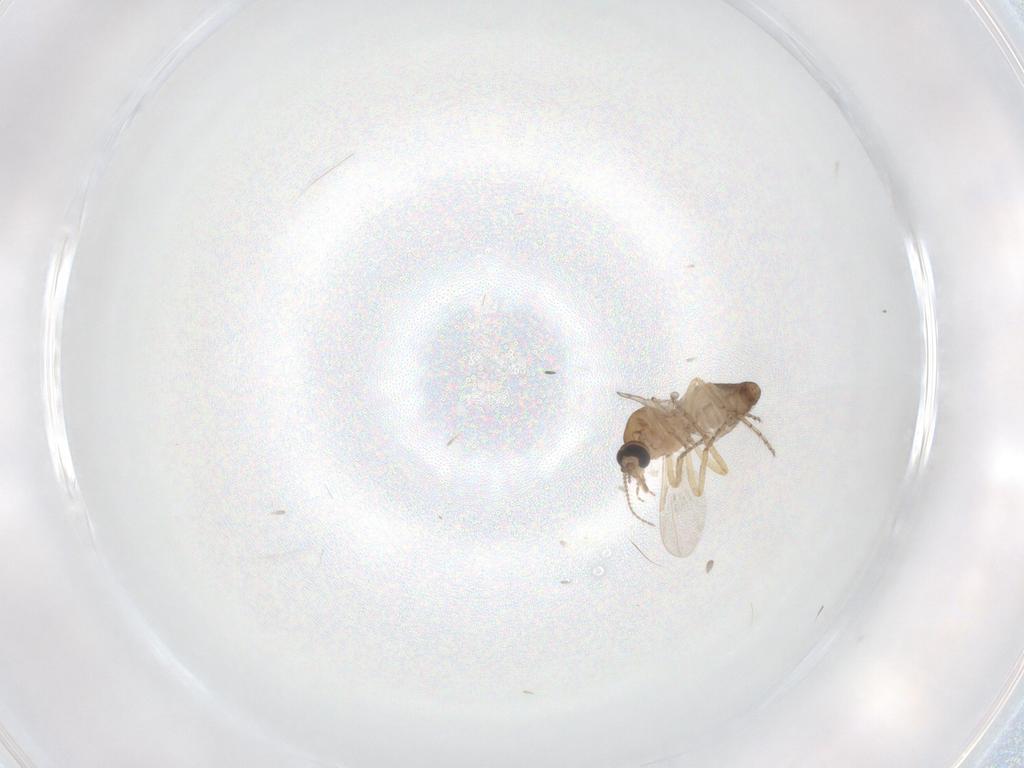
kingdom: Animalia
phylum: Arthropoda
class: Insecta
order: Diptera
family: Ceratopogonidae
